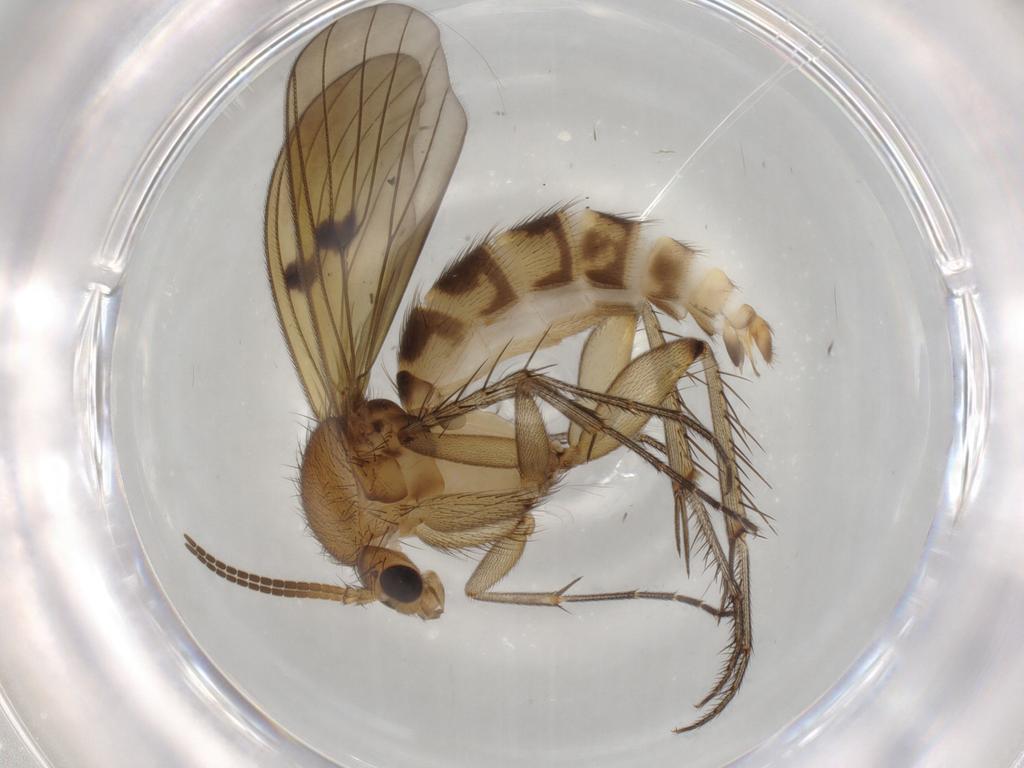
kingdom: Animalia
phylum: Arthropoda
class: Insecta
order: Diptera
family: Mycetophilidae
